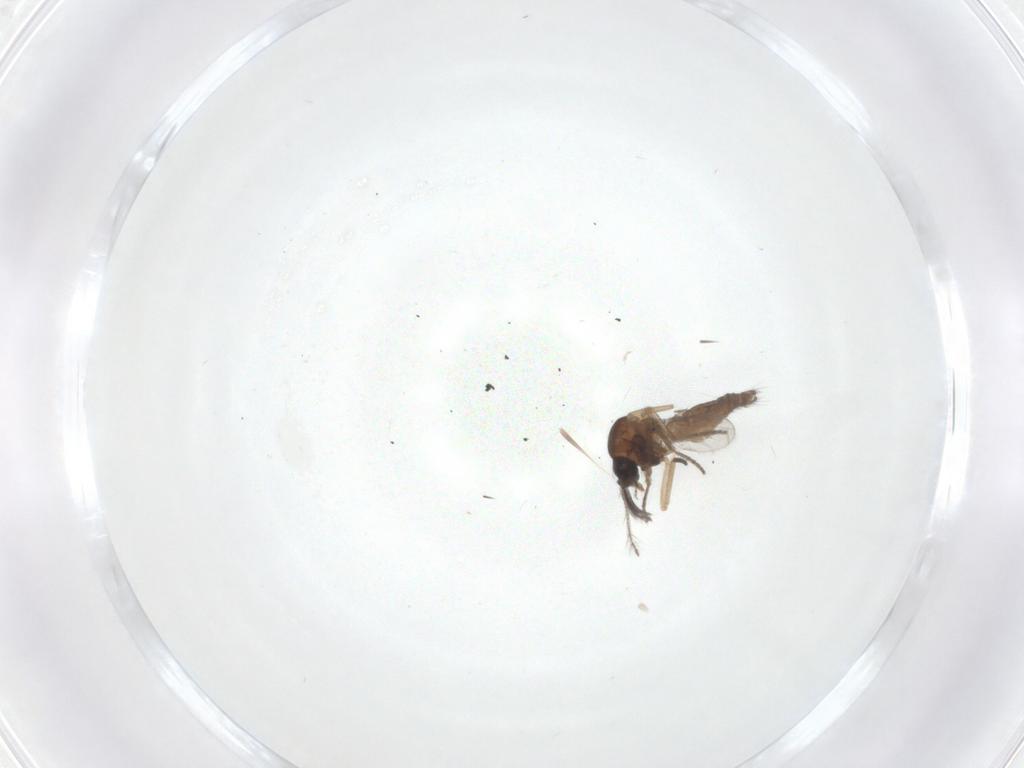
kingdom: Animalia
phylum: Arthropoda
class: Insecta
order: Diptera
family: Ceratopogonidae
